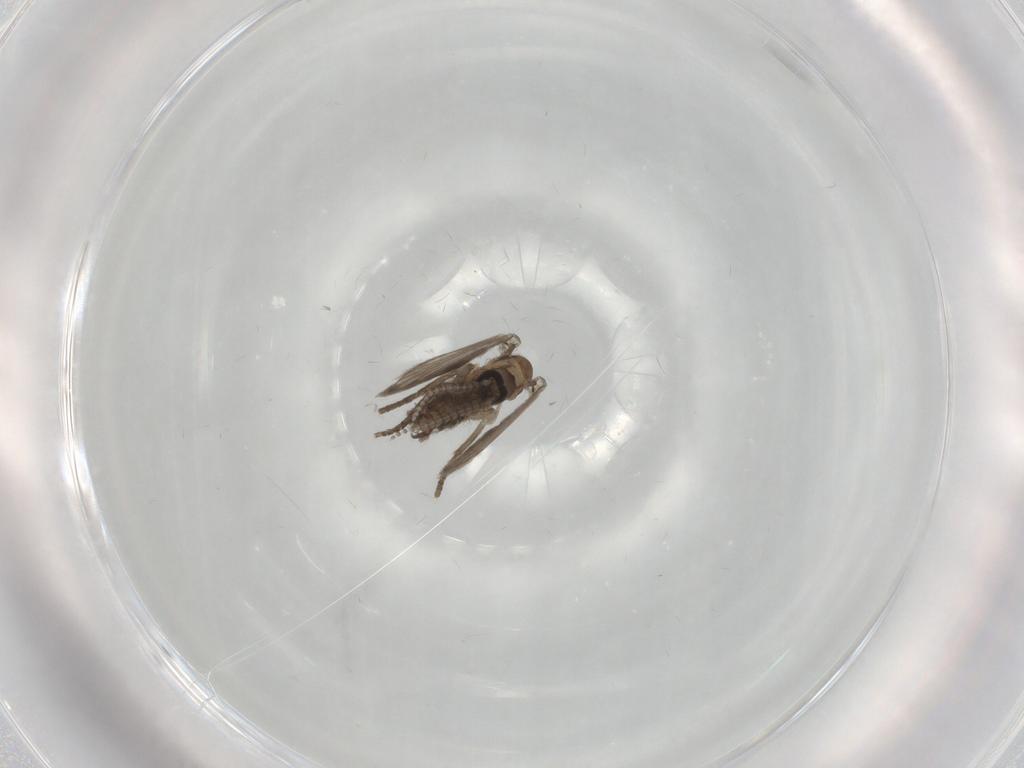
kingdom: Animalia
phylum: Arthropoda
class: Insecta
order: Diptera
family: Psychodidae
